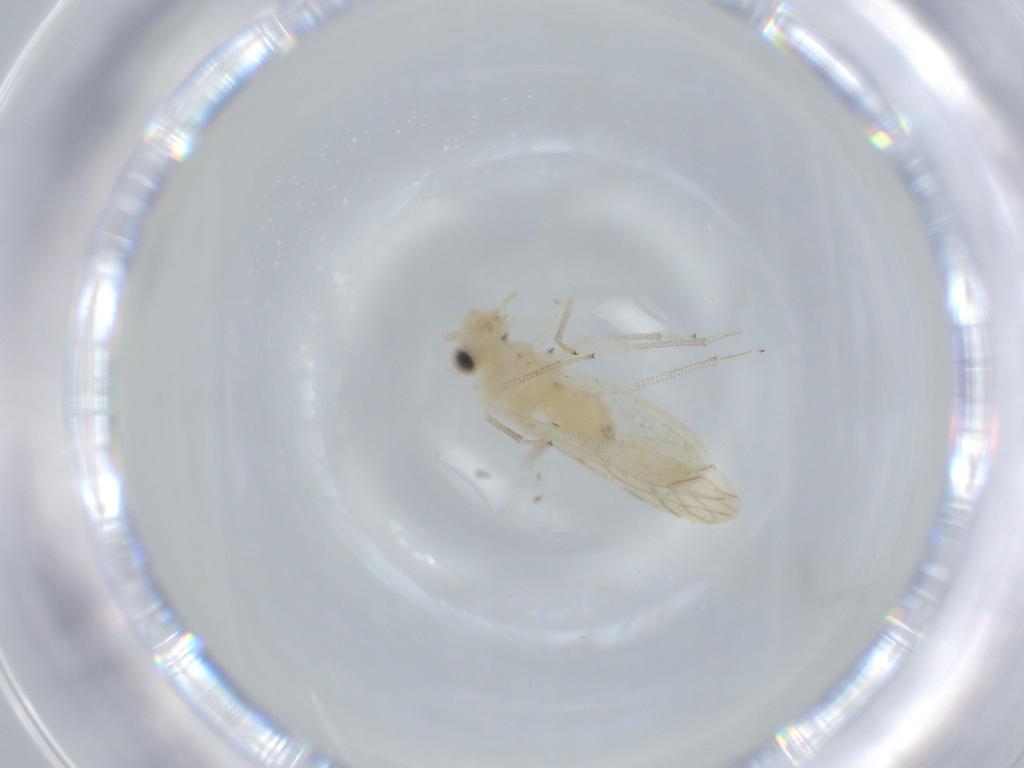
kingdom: Animalia
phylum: Arthropoda
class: Insecta
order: Psocodea
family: Caeciliusidae
